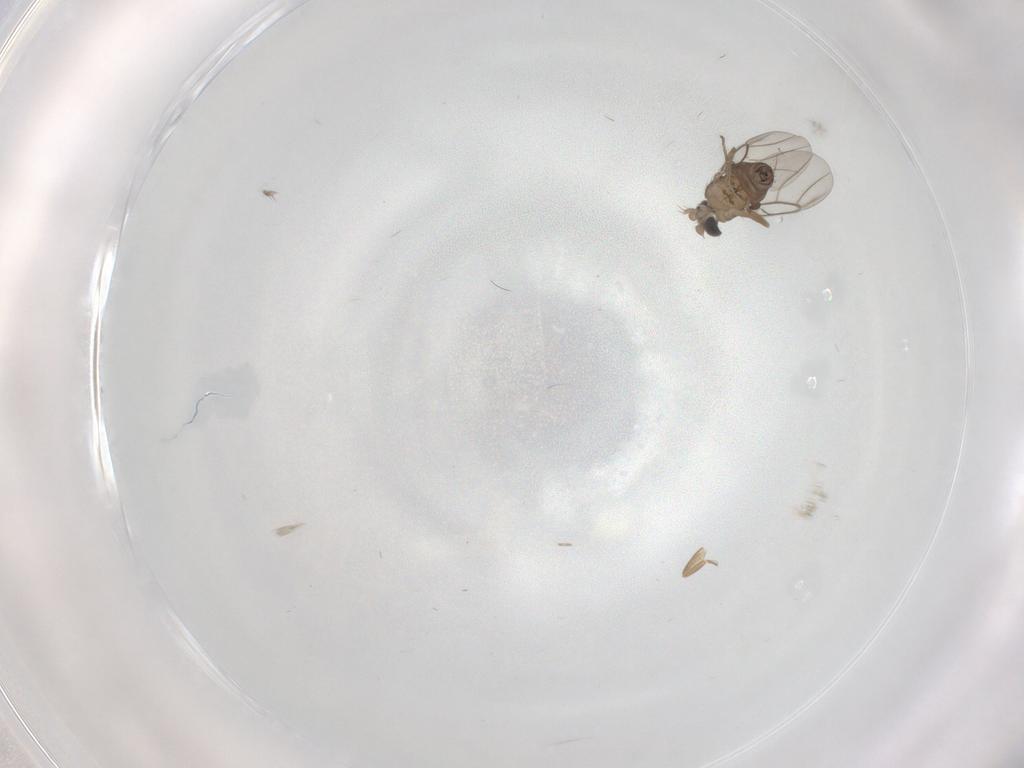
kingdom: Animalia
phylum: Arthropoda
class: Insecta
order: Diptera
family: Phoridae
